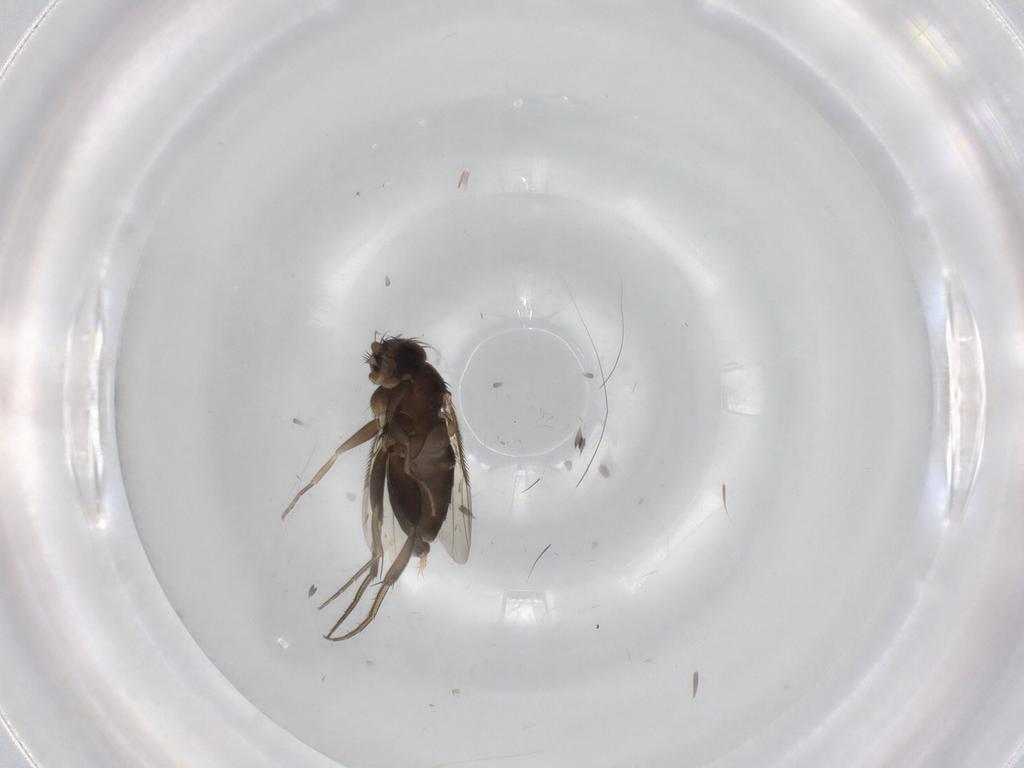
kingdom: Animalia
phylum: Arthropoda
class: Insecta
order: Diptera
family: Phoridae
